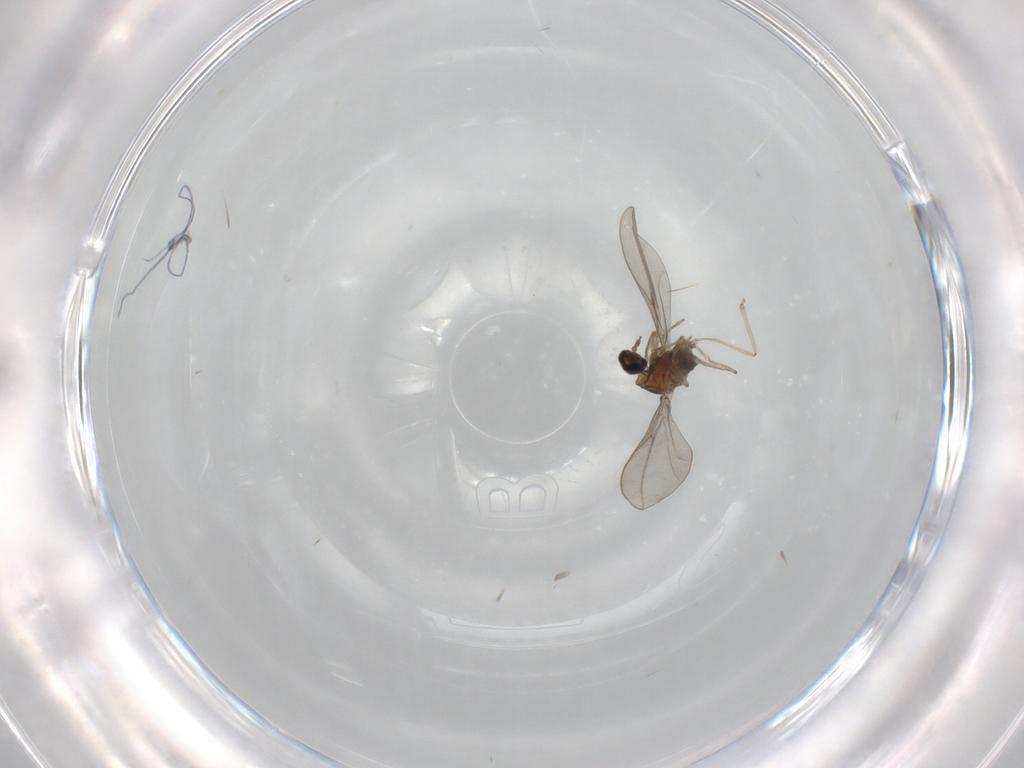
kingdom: Animalia
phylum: Arthropoda
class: Insecta
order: Diptera
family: Cecidomyiidae
